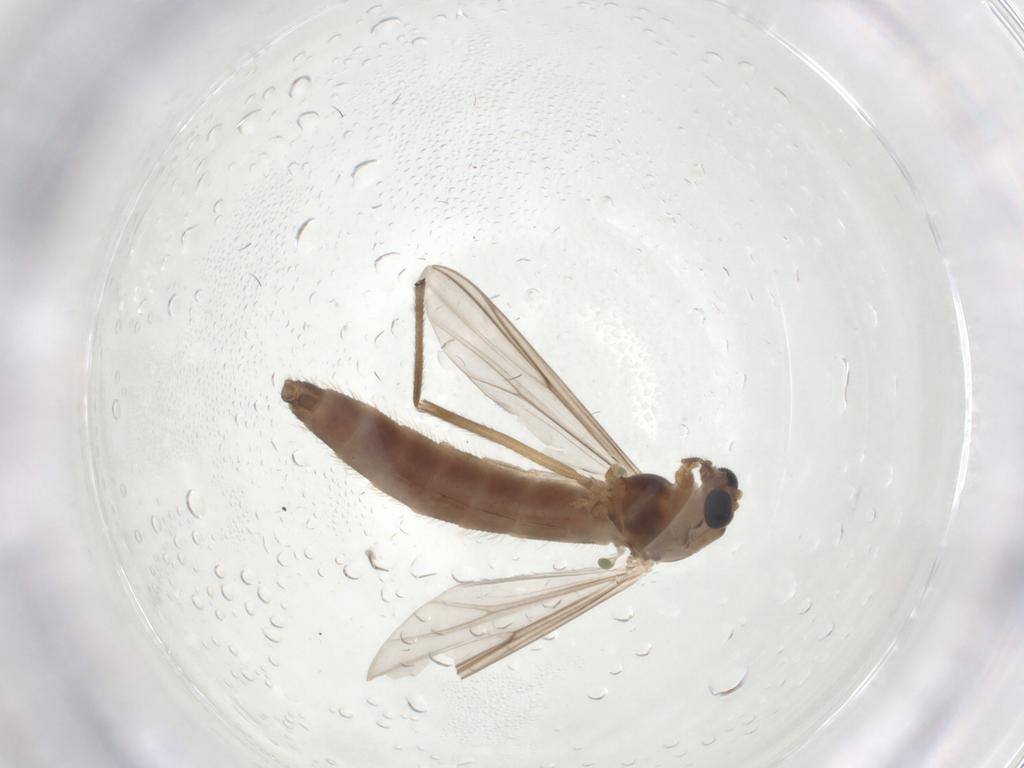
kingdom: Animalia
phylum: Arthropoda
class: Insecta
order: Diptera
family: Chironomidae
